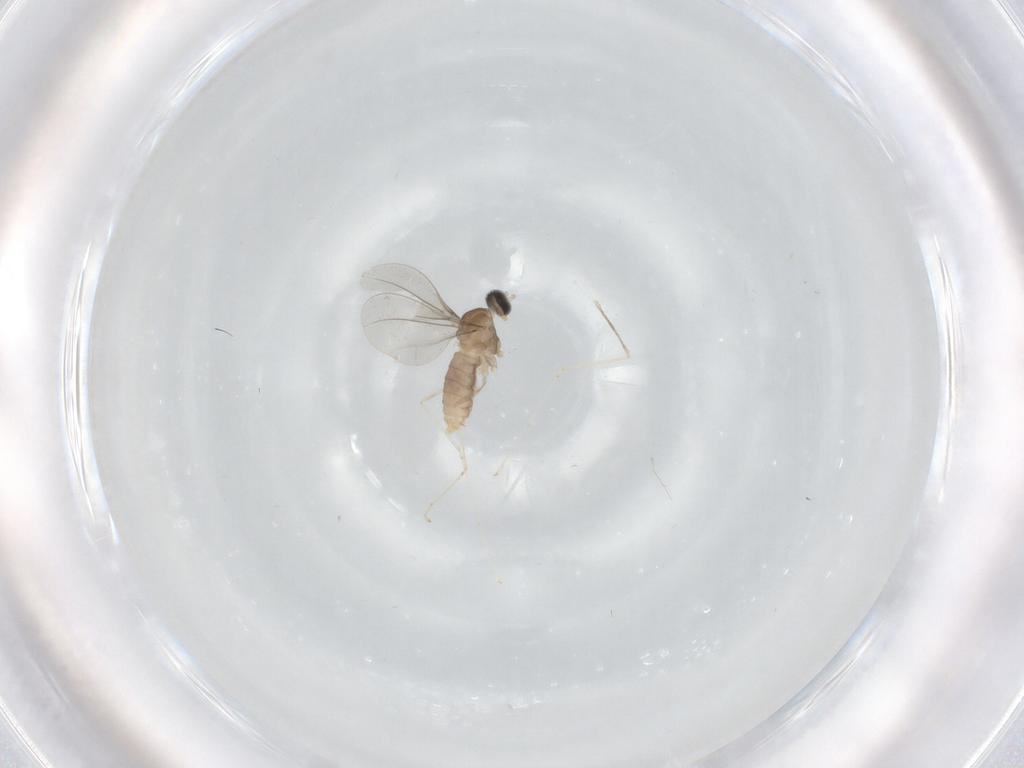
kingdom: Animalia
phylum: Arthropoda
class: Insecta
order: Diptera
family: Cecidomyiidae
